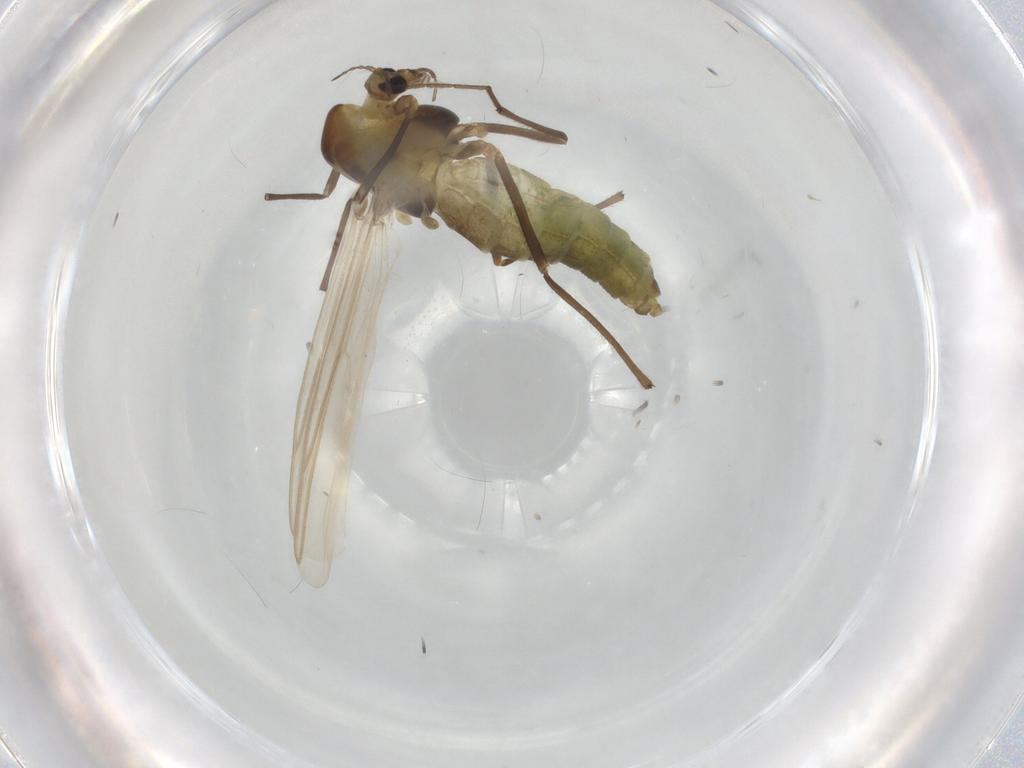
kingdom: Animalia
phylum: Arthropoda
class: Insecta
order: Diptera
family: Chironomidae
